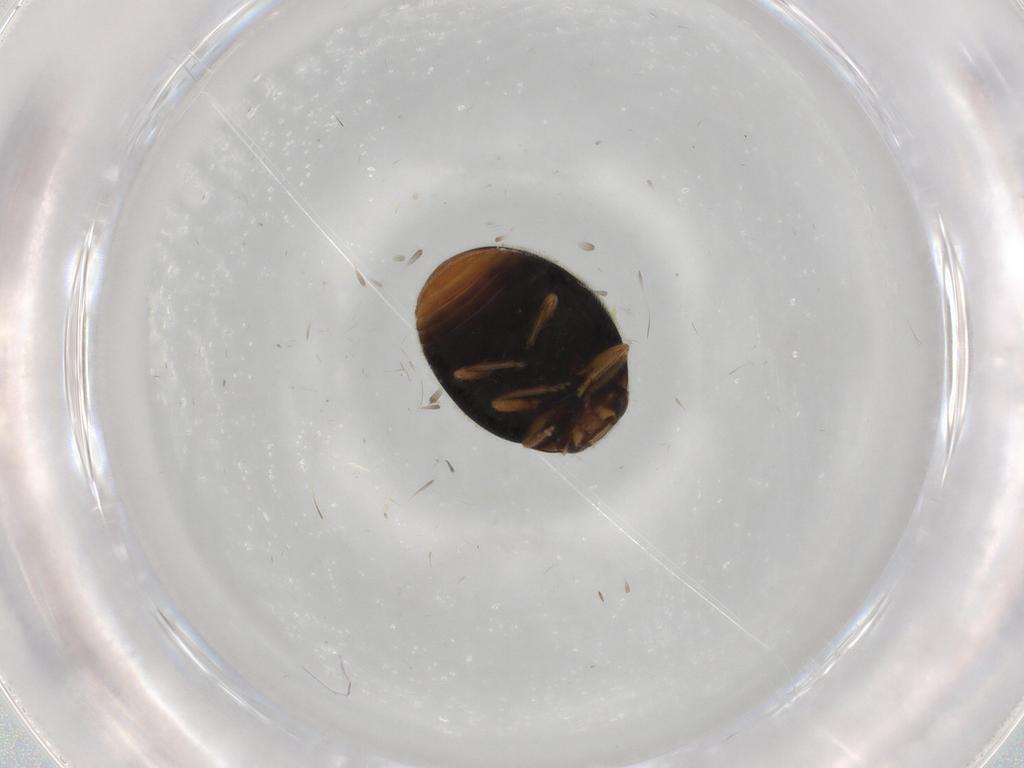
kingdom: Animalia
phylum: Arthropoda
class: Insecta
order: Coleoptera
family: Coccinellidae
